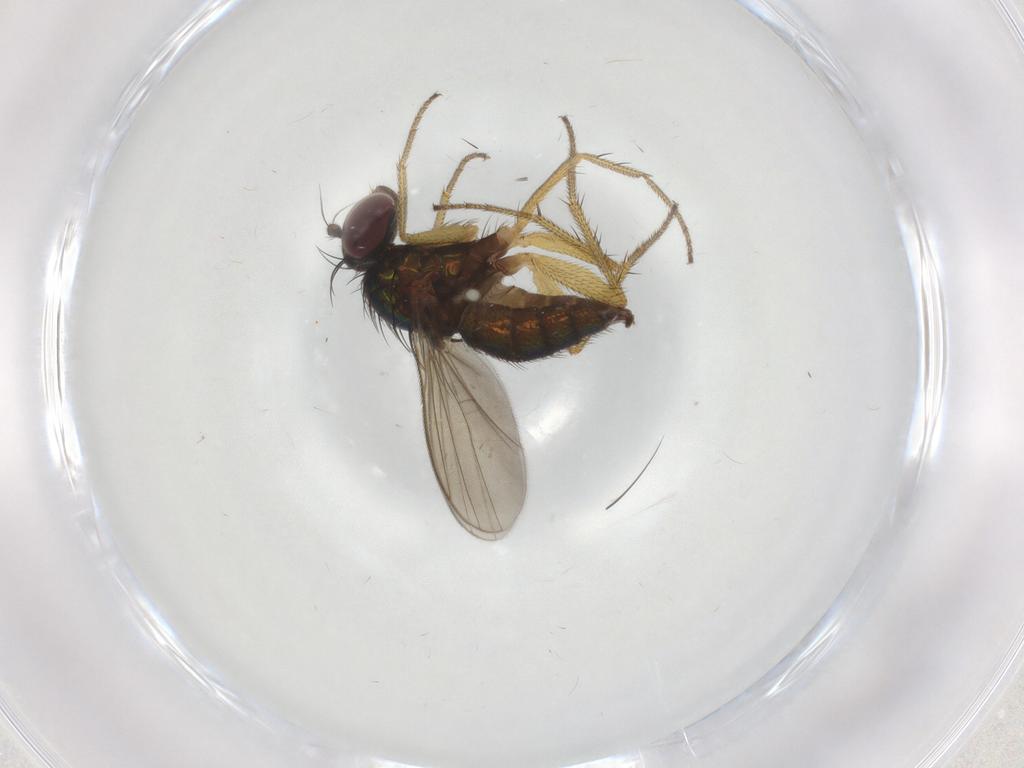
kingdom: Animalia
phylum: Arthropoda
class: Insecta
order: Diptera
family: Dolichopodidae
